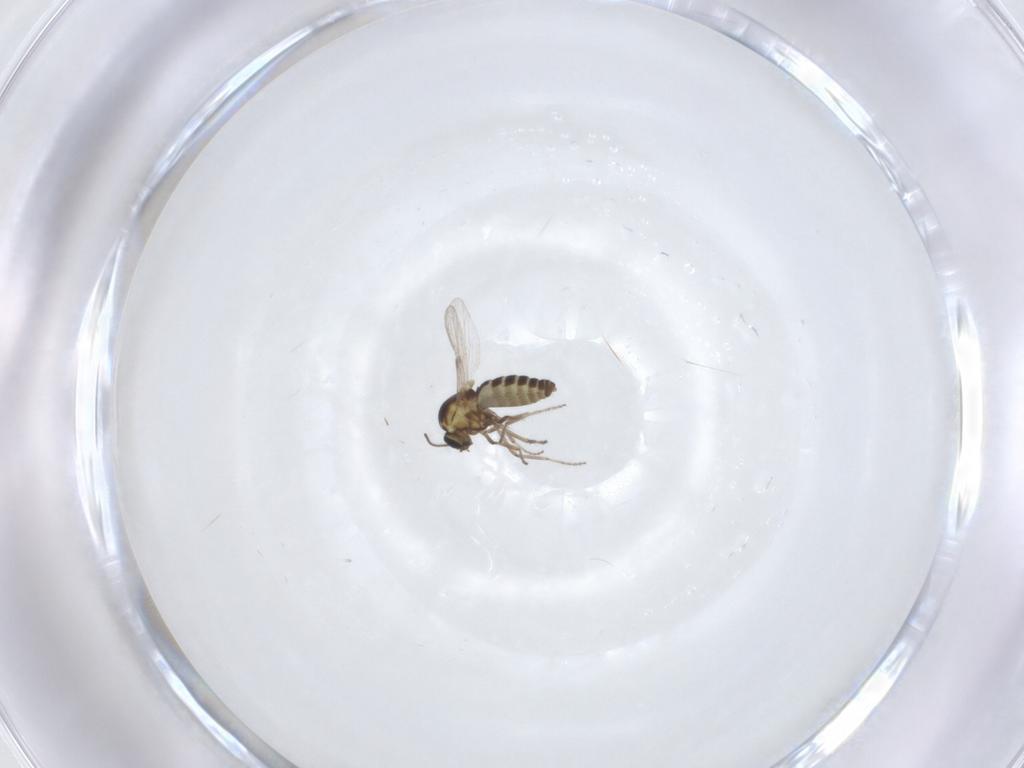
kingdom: Animalia
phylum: Arthropoda
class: Insecta
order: Diptera
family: Ceratopogonidae
